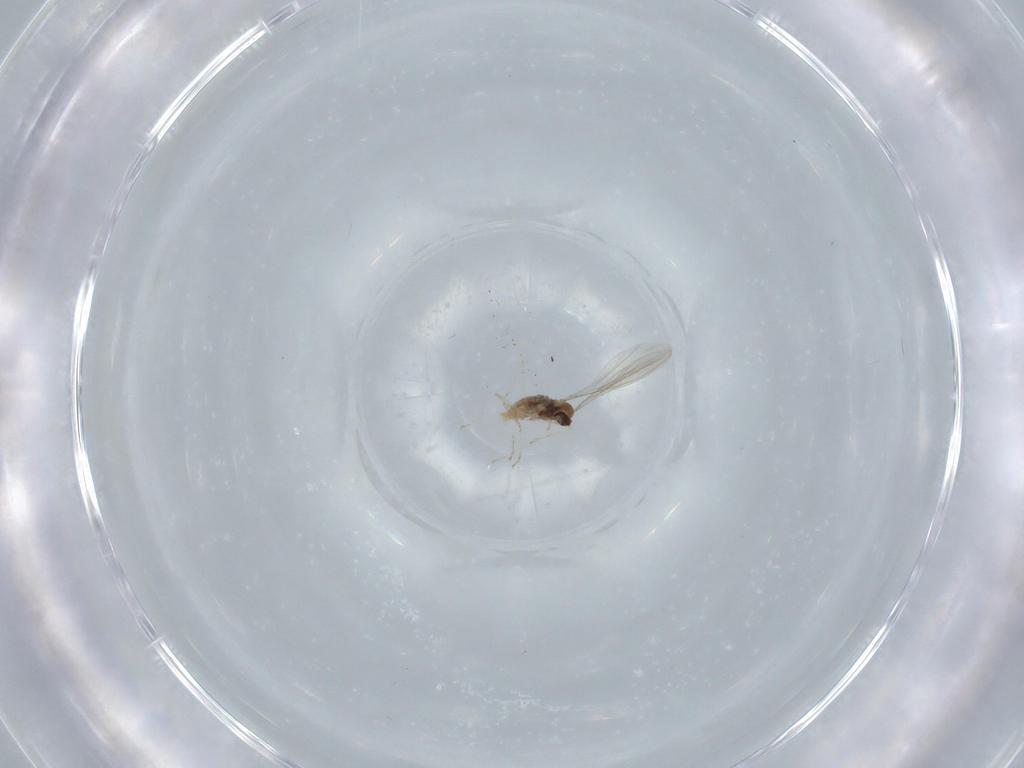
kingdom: Animalia
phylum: Arthropoda
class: Insecta
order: Diptera
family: Cecidomyiidae
